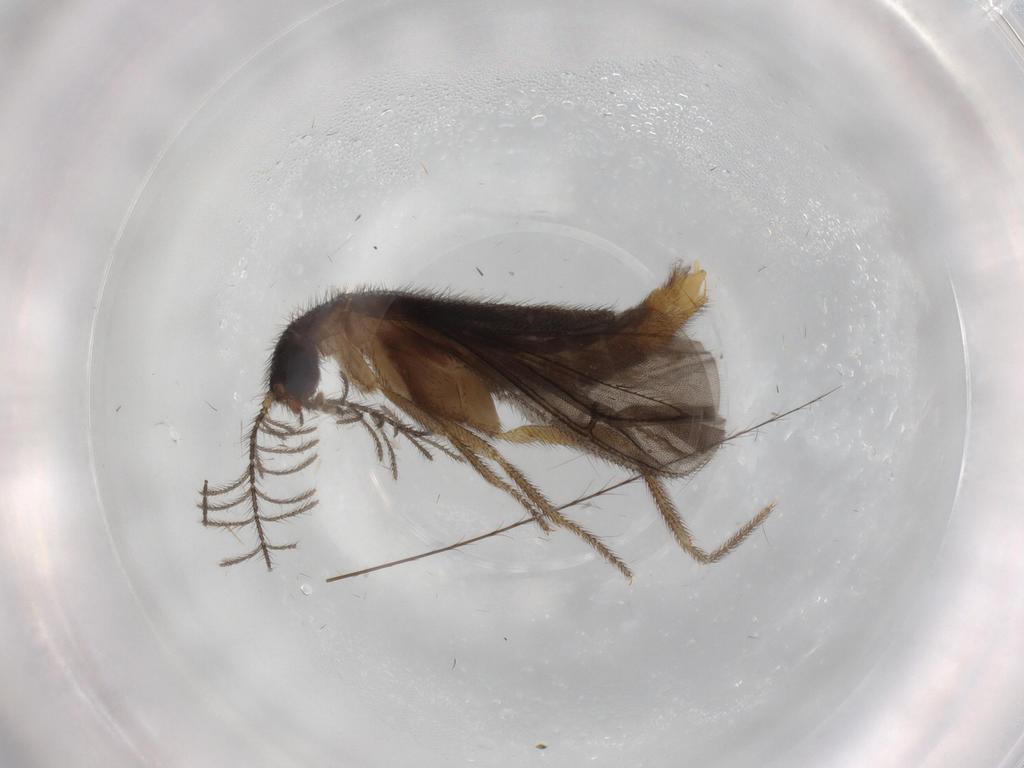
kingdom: Animalia
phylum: Arthropoda
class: Insecta
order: Coleoptera
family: Phengodidae
